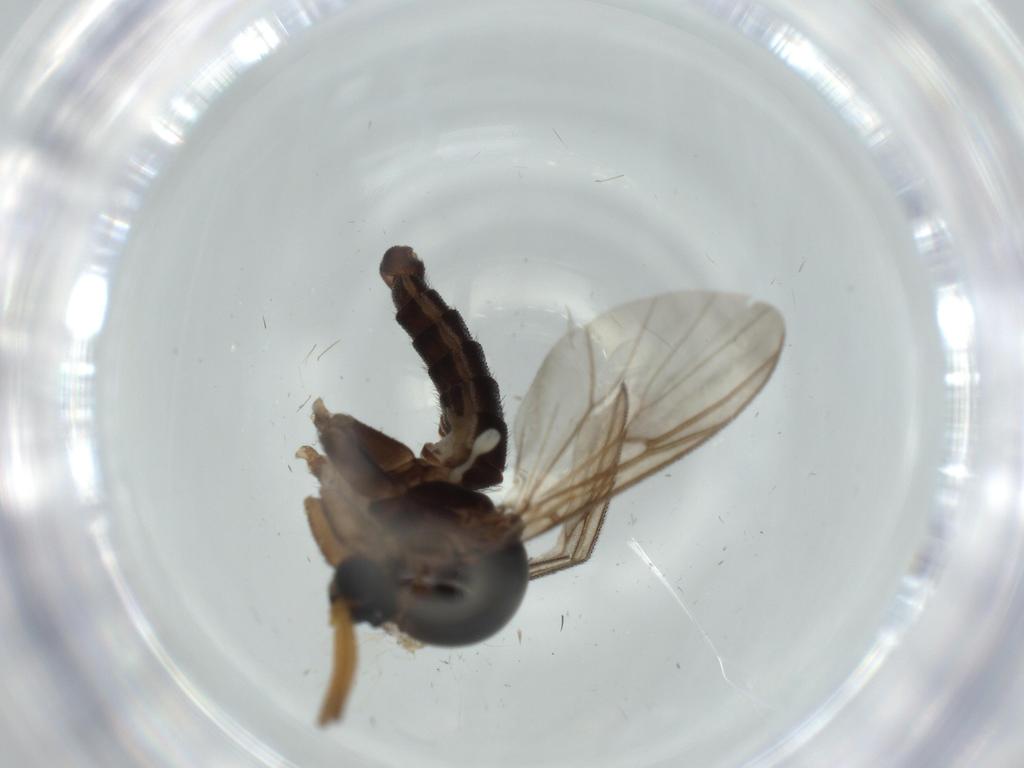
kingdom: Animalia
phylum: Arthropoda
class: Insecta
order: Diptera
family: Mycetophilidae
